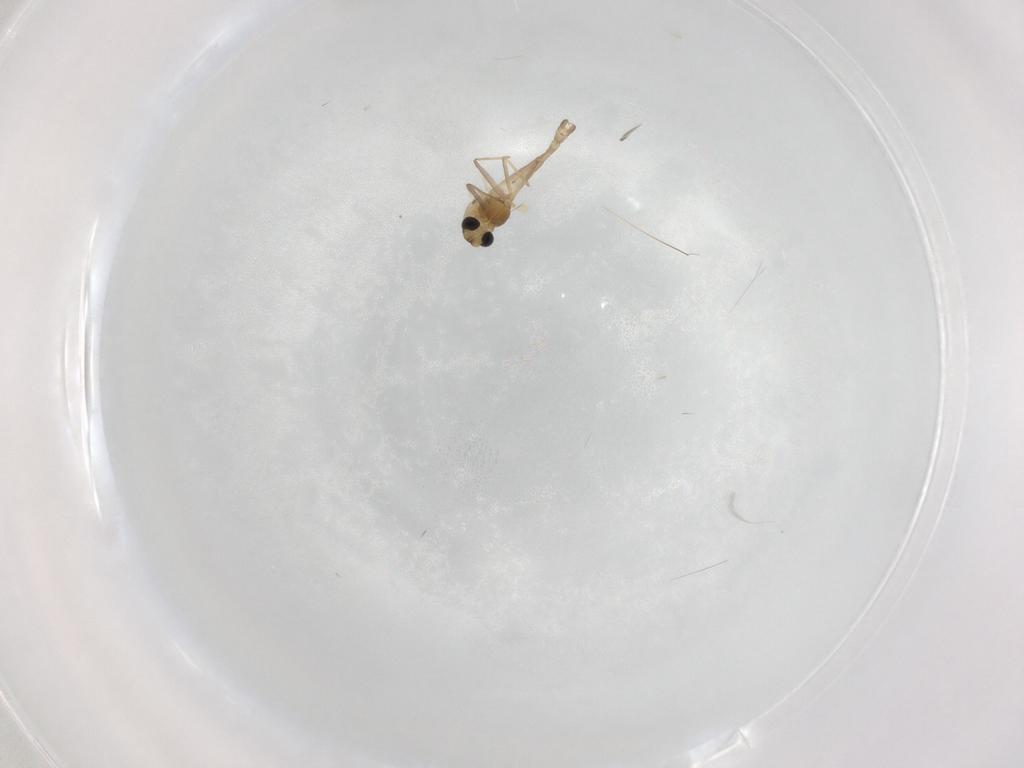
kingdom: Animalia
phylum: Arthropoda
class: Insecta
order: Diptera
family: Chironomidae
